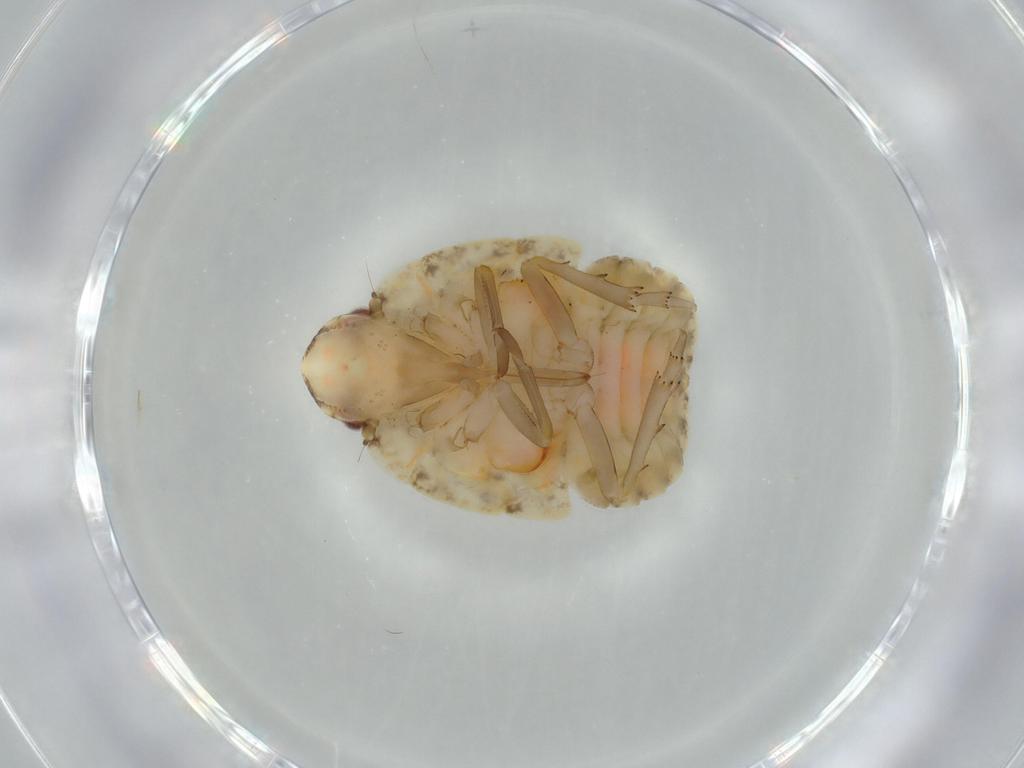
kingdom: Animalia
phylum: Arthropoda
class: Insecta
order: Hemiptera
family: Flatidae
